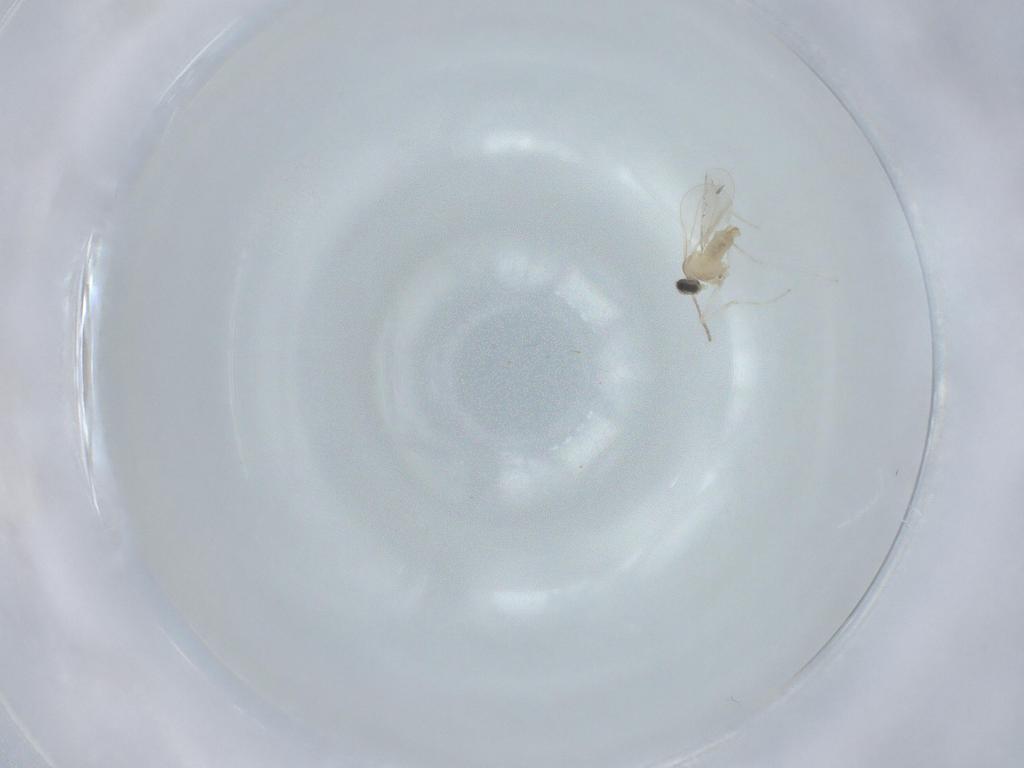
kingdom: Animalia
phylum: Arthropoda
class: Insecta
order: Diptera
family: Cecidomyiidae
